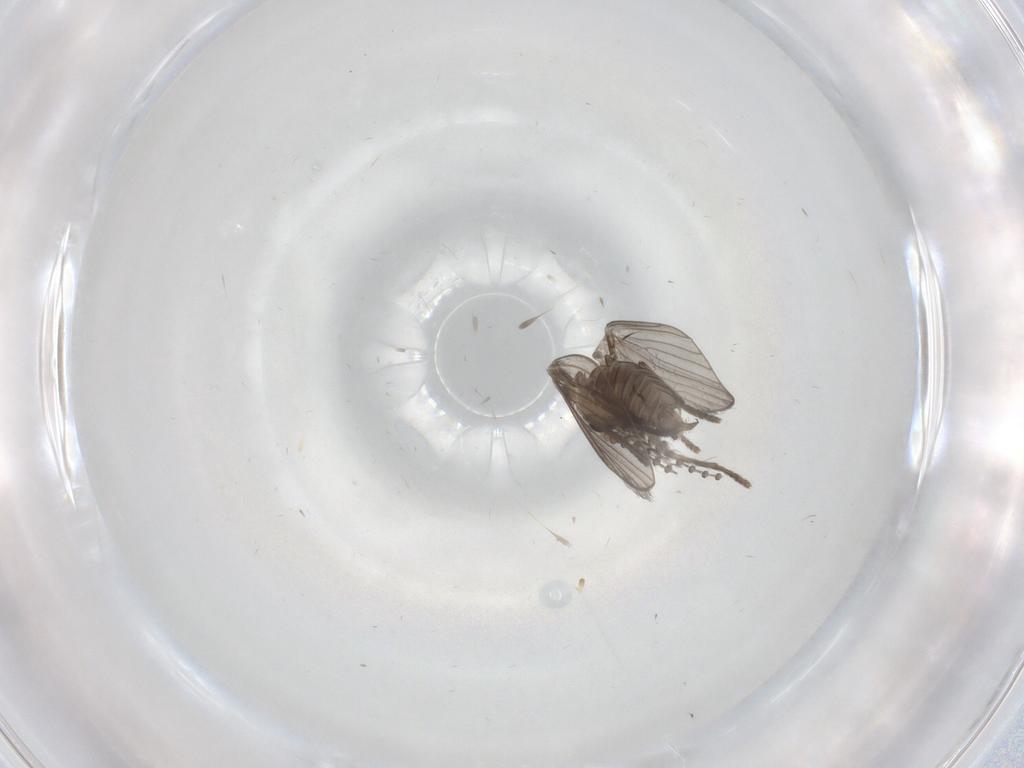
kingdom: Animalia
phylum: Arthropoda
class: Insecta
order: Diptera
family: Psychodidae
